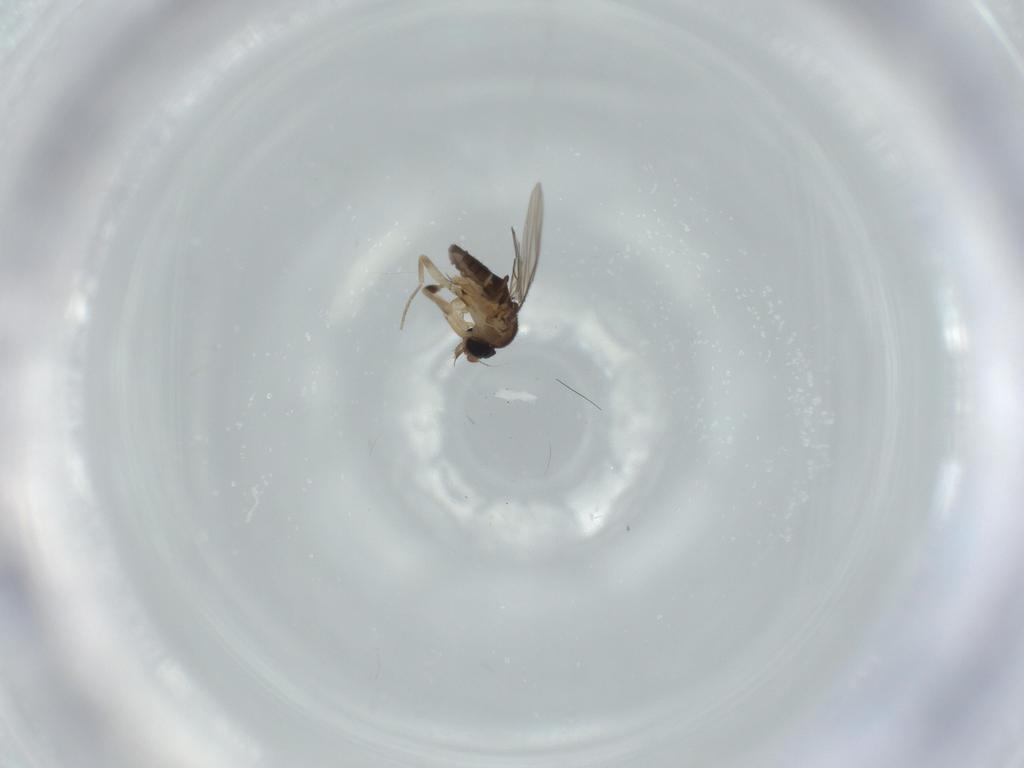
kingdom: Animalia
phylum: Arthropoda
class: Insecta
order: Diptera
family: Phoridae
